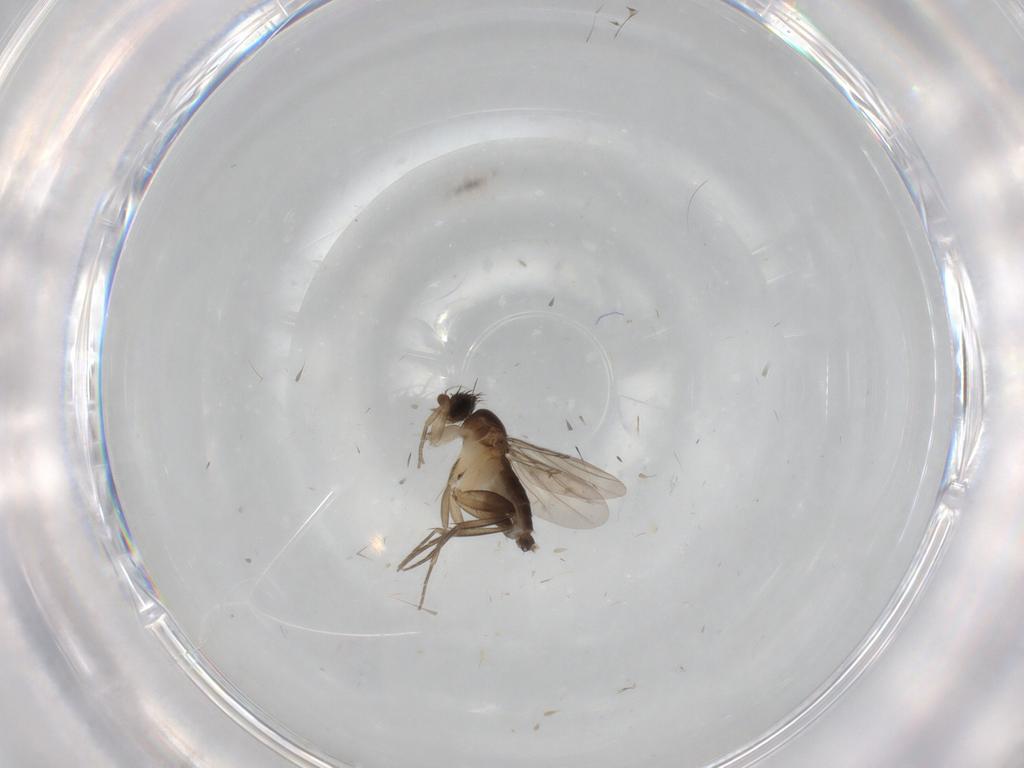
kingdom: Animalia
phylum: Arthropoda
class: Insecta
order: Diptera
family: Phoridae
